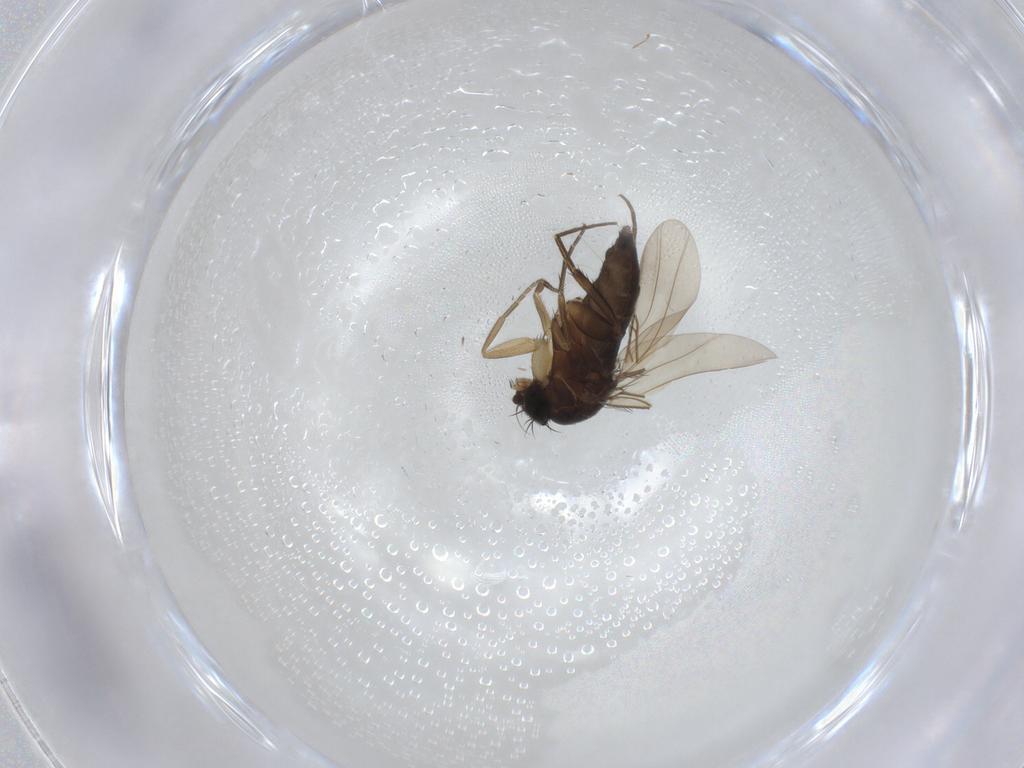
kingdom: Animalia
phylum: Arthropoda
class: Insecta
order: Diptera
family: Phoridae
